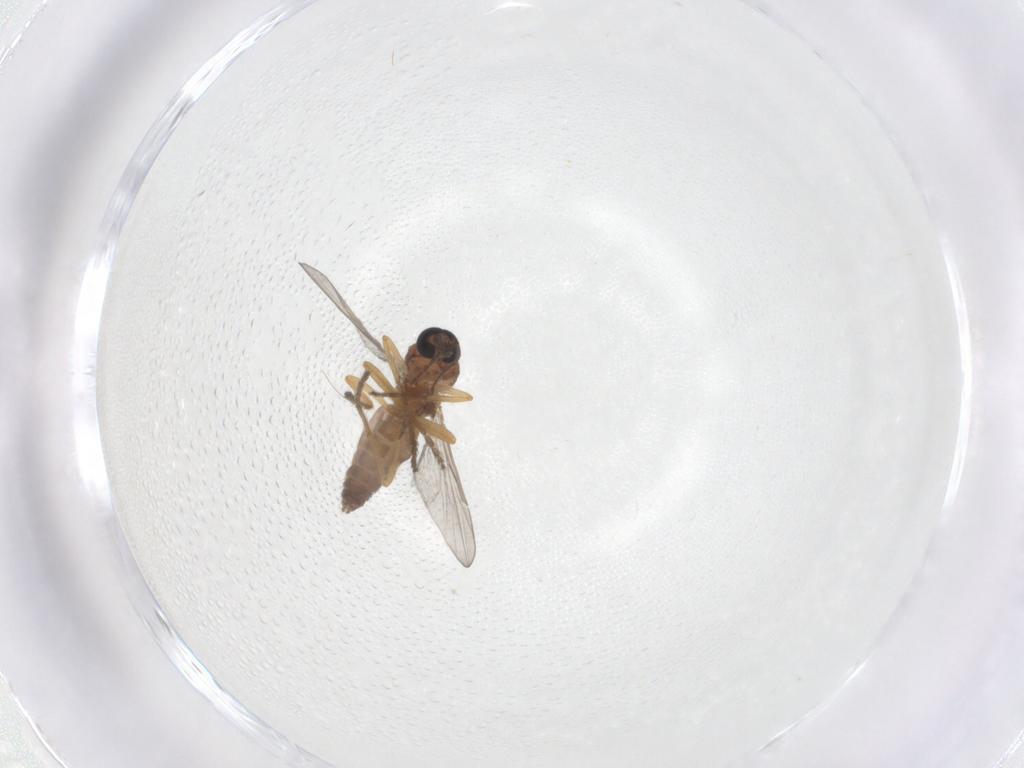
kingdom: Animalia
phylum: Arthropoda
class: Insecta
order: Diptera
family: Ceratopogonidae
